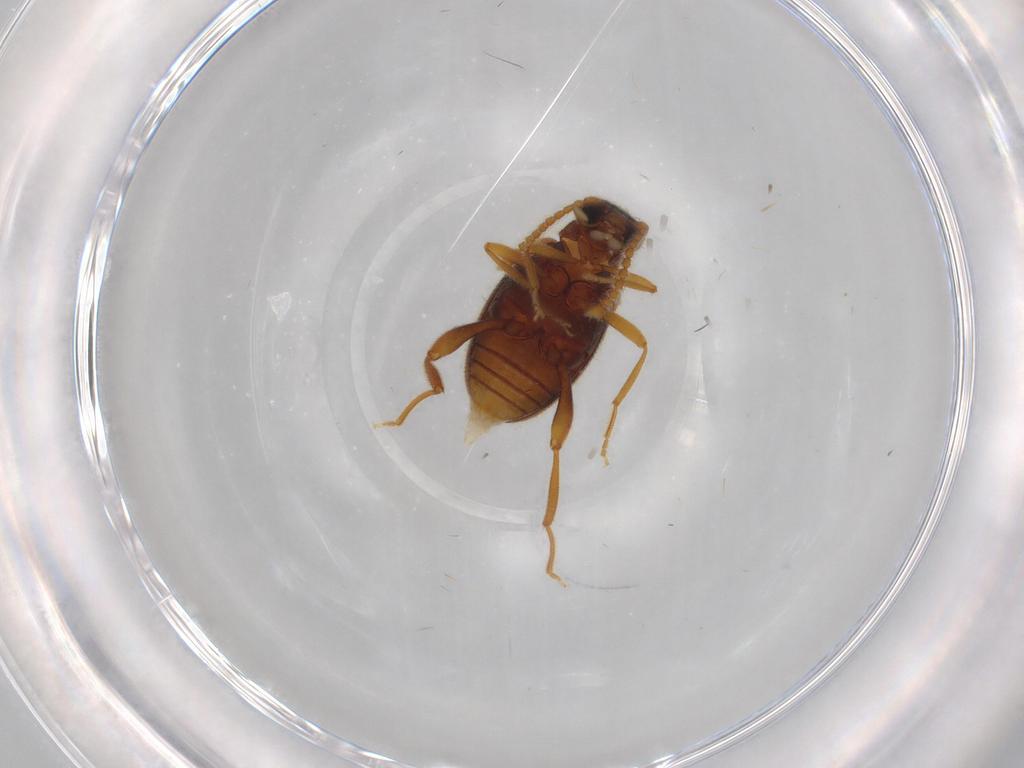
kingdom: Animalia
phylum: Arthropoda
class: Insecta
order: Coleoptera
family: Aderidae
